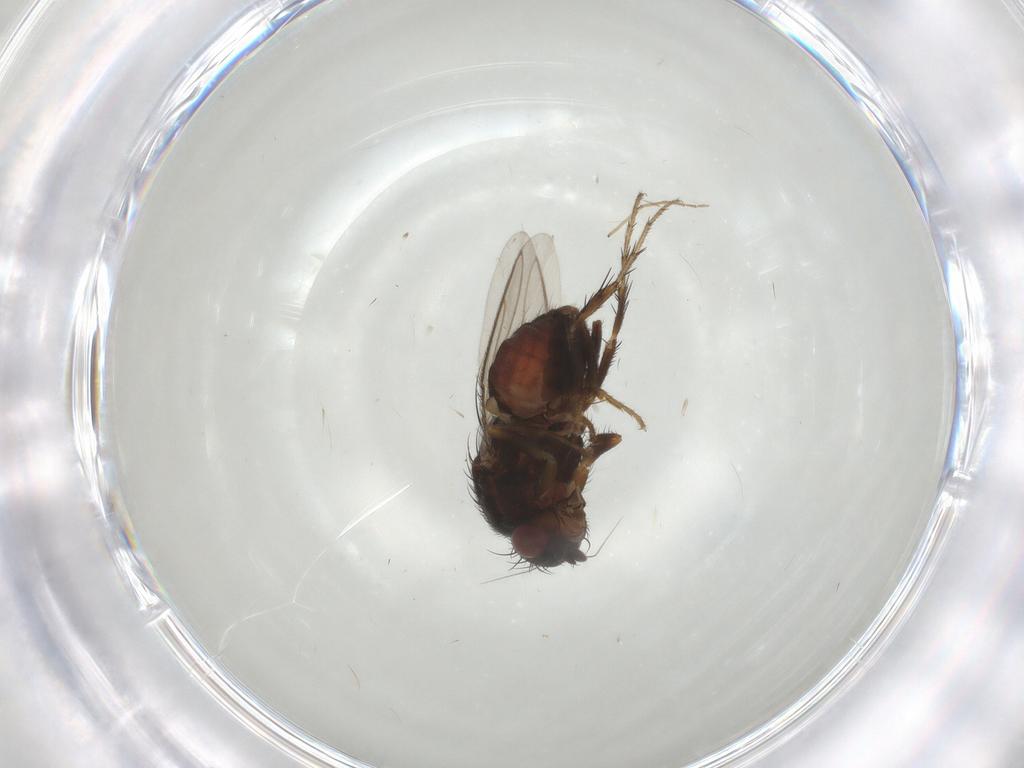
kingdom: Animalia
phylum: Arthropoda
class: Insecta
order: Diptera
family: Sphaeroceridae
